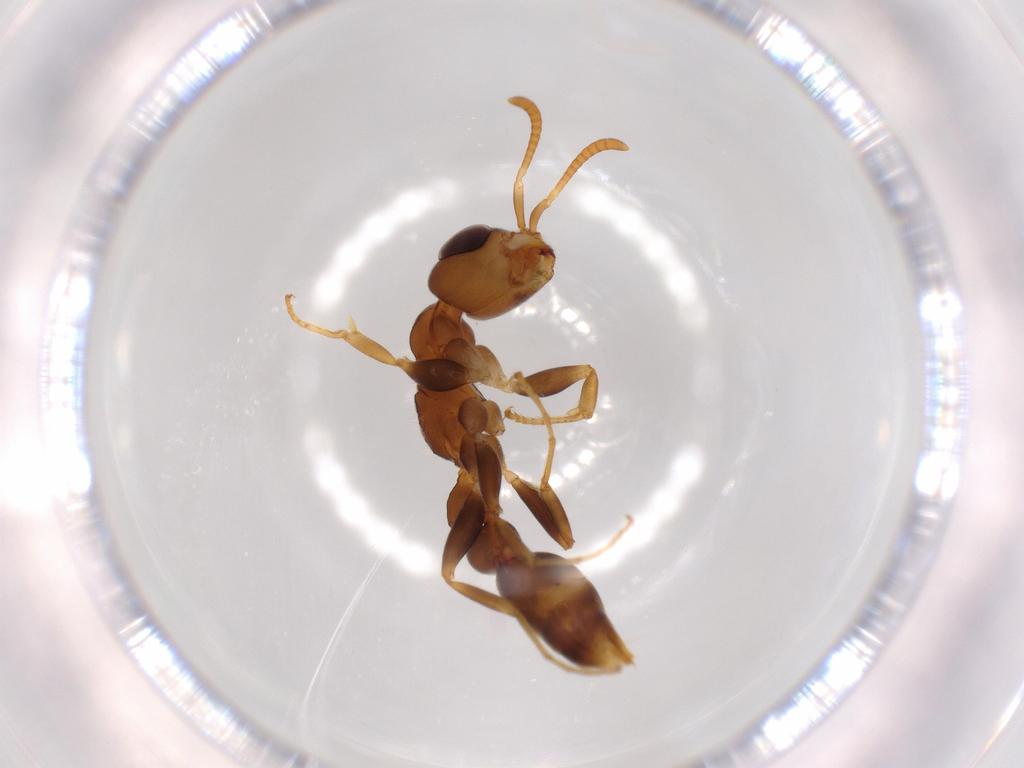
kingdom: Animalia
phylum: Arthropoda
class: Insecta
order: Hymenoptera
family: Formicidae
